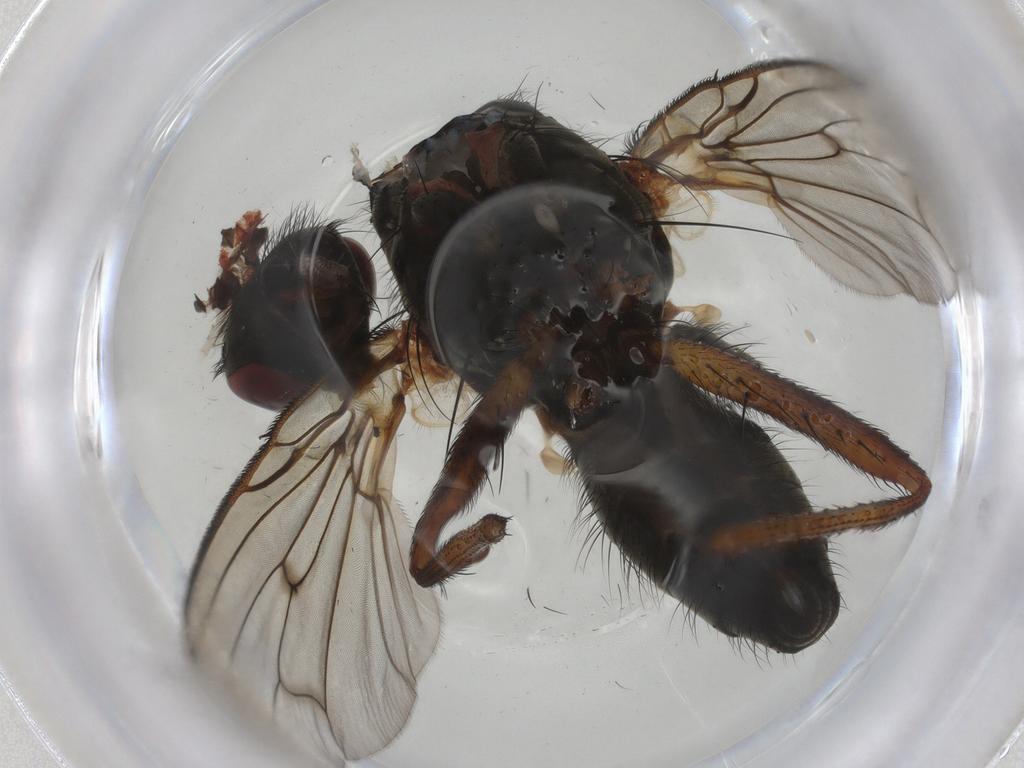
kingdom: Animalia
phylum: Arthropoda
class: Insecta
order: Diptera
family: Anthomyiidae
